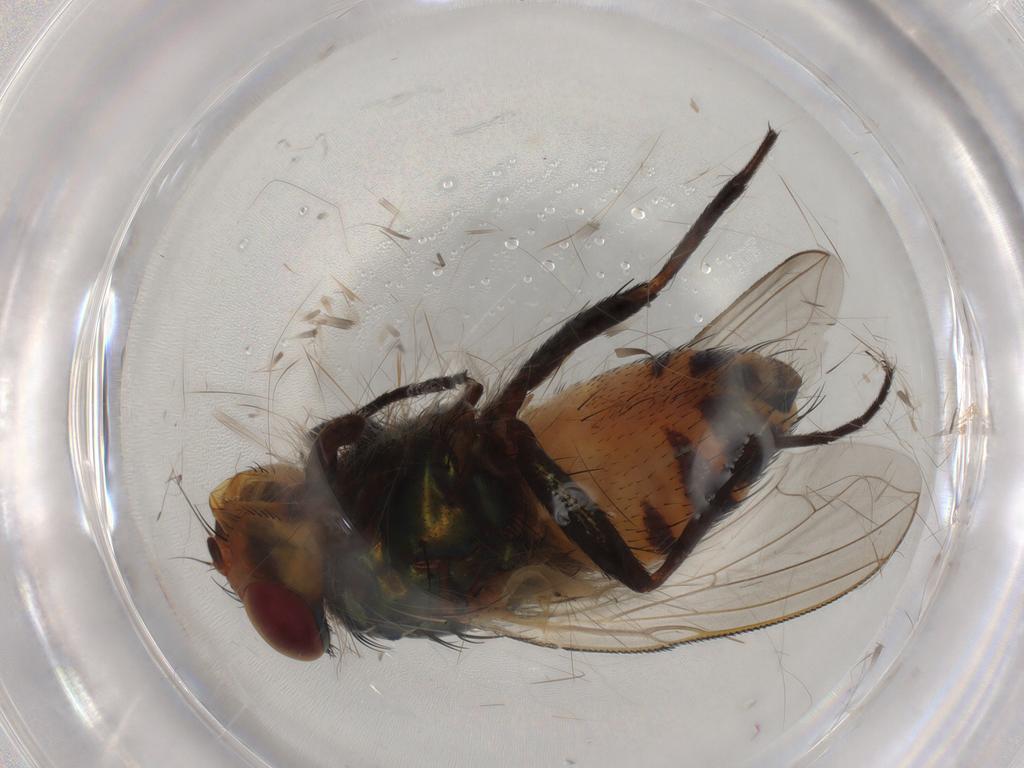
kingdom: Animalia
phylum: Arthropoda
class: Insecta
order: Diptera
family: Calliphoridae
